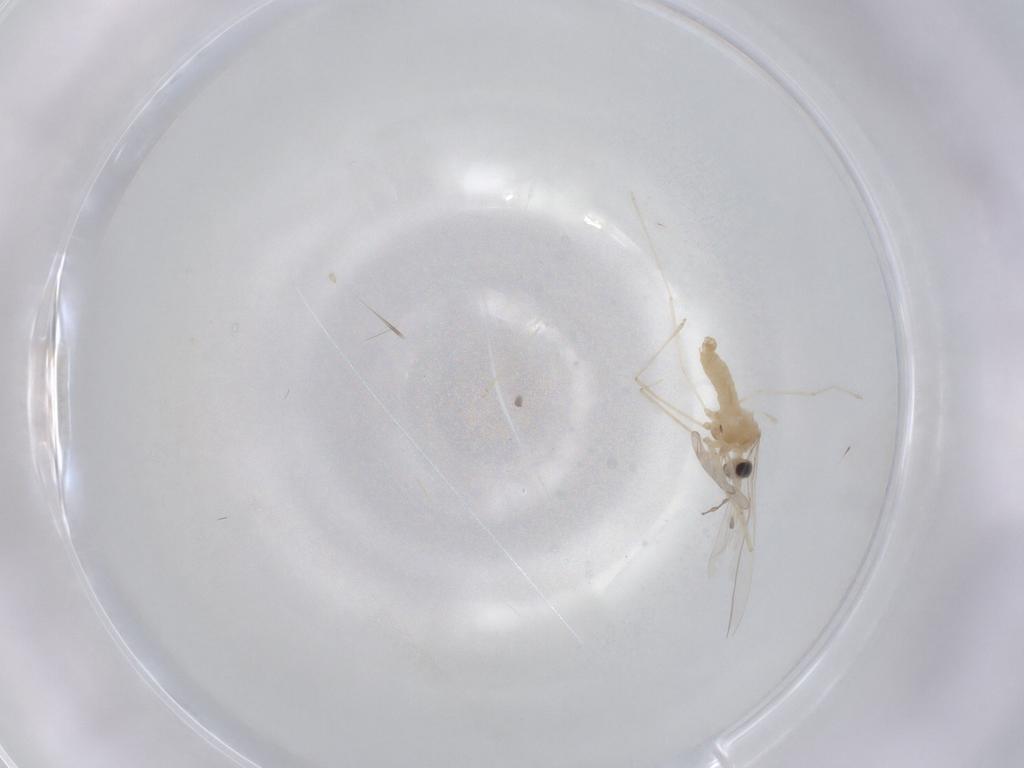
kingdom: Animalia
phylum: Arthropoda
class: Insecta
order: Diptera
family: Cecidomyiidae
